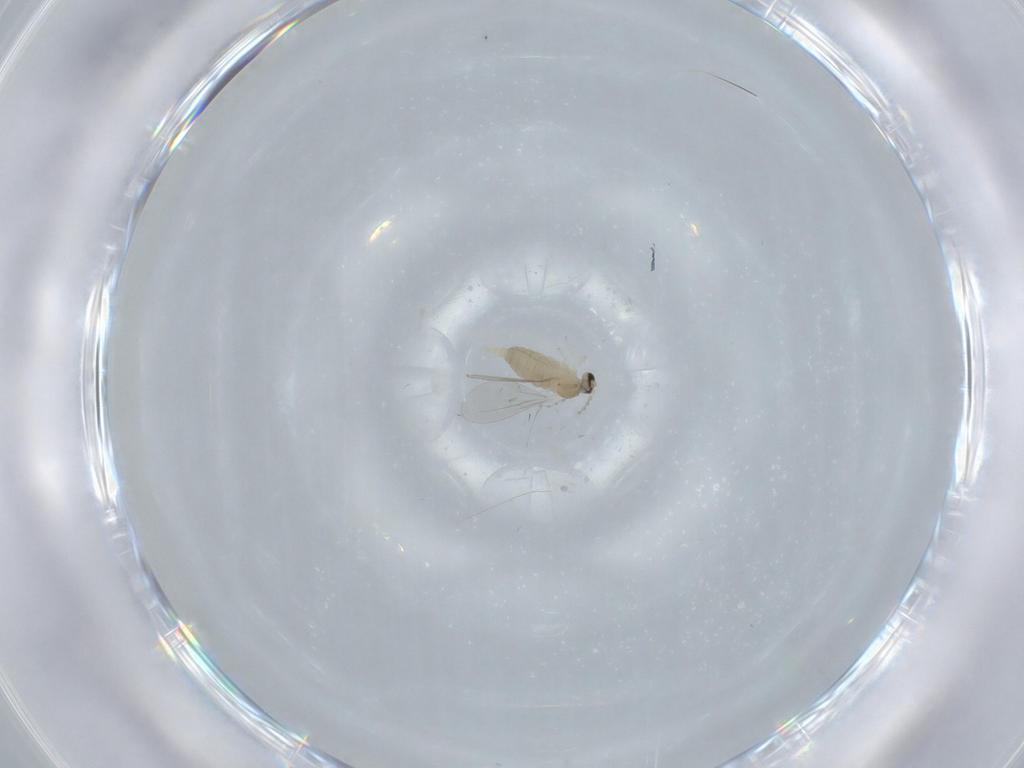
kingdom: Animalia
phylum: Arthropoda
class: Insecta
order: Diptera
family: Cecidomyiidae
